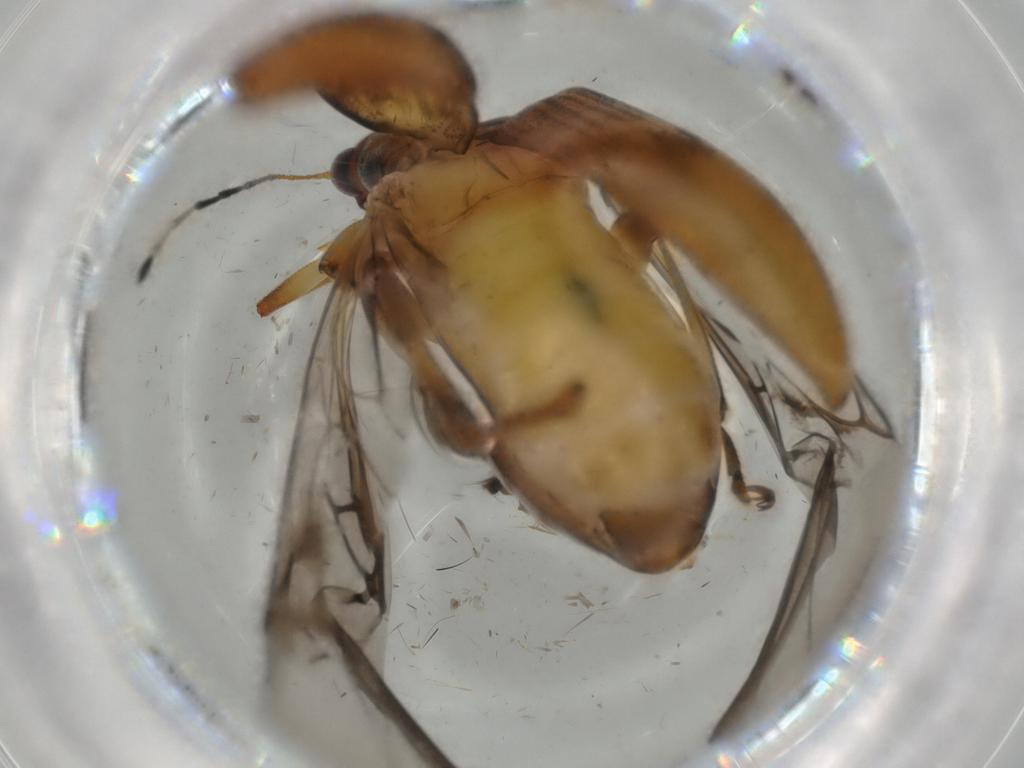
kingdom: Animalia
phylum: Arthropoda
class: Insecta
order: Coleoptera
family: Chrysomelidae
